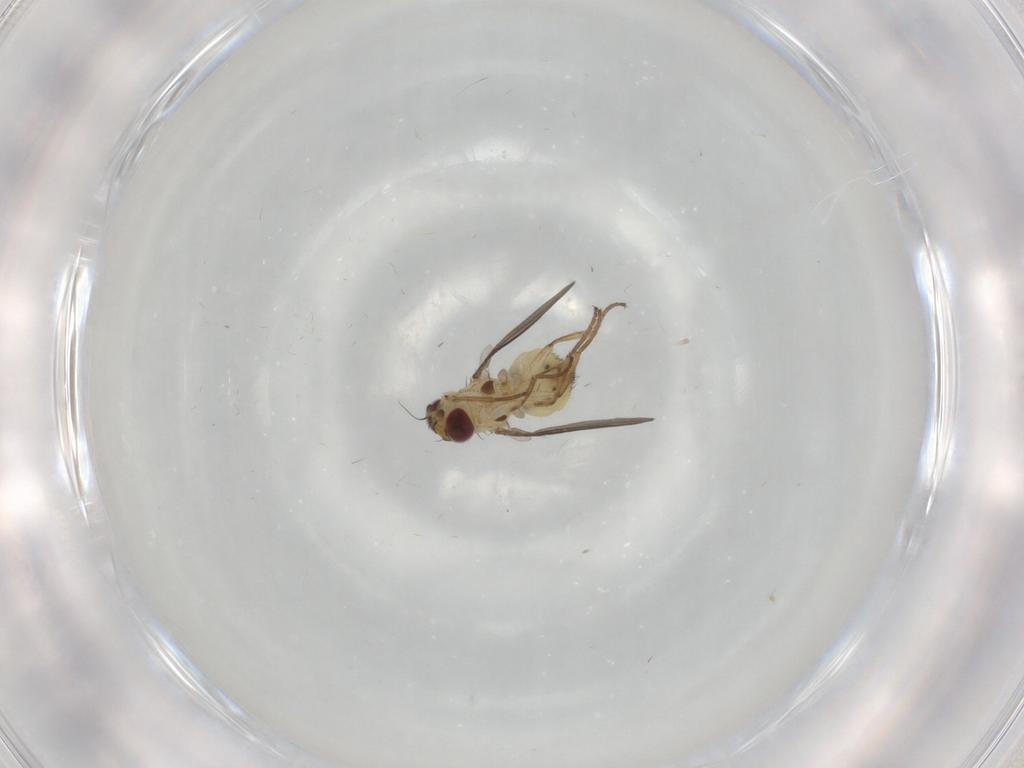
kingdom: Animalia
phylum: Arthropoda
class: Insecta
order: Diptera
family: Agromyzidae
